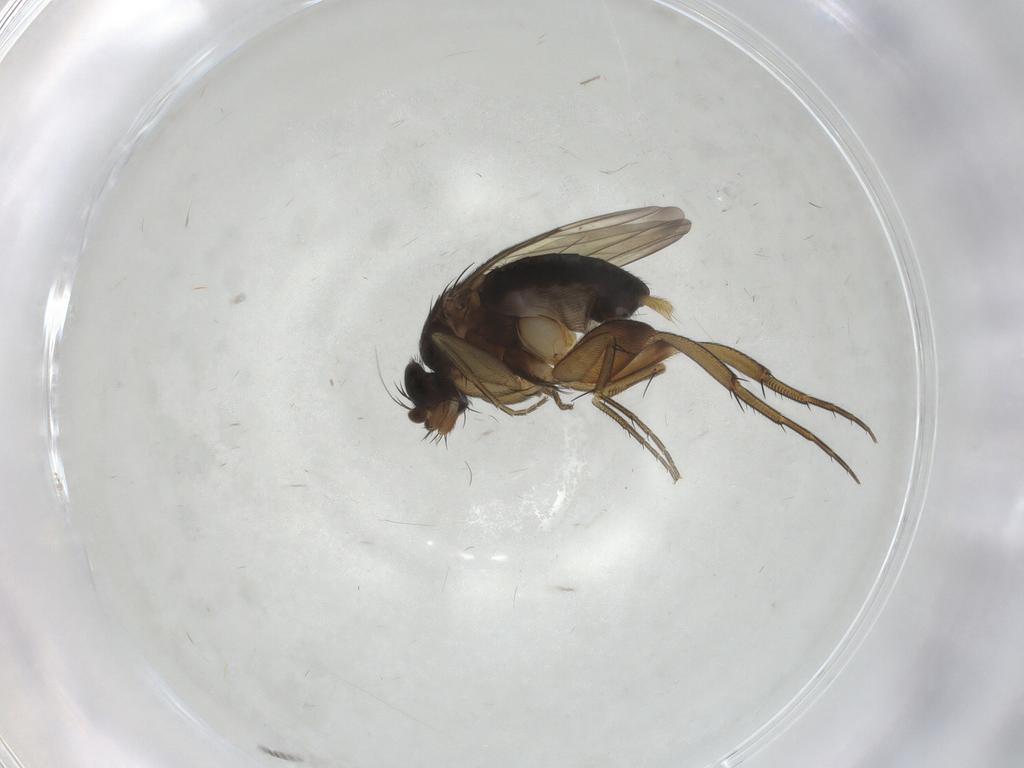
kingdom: Animalia
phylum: Arthropoda
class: Insecta
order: Diptera
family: Phoridae
